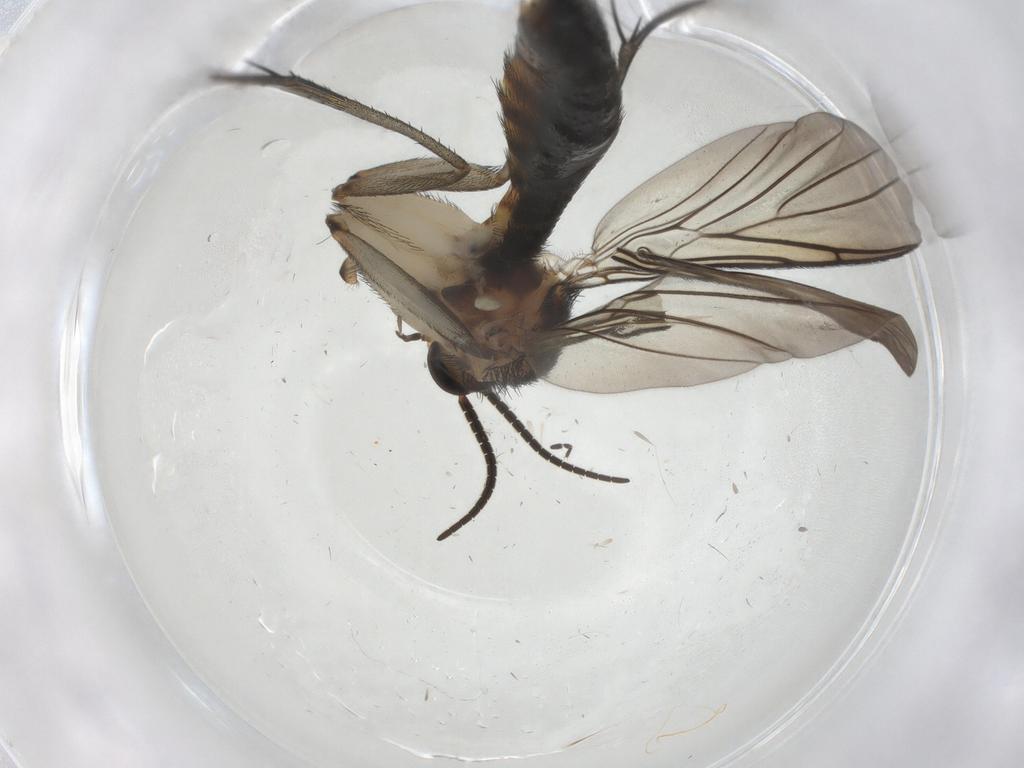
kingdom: Animalia
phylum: Arthropoda
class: Insecta
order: Diptera
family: Keroplatidae
